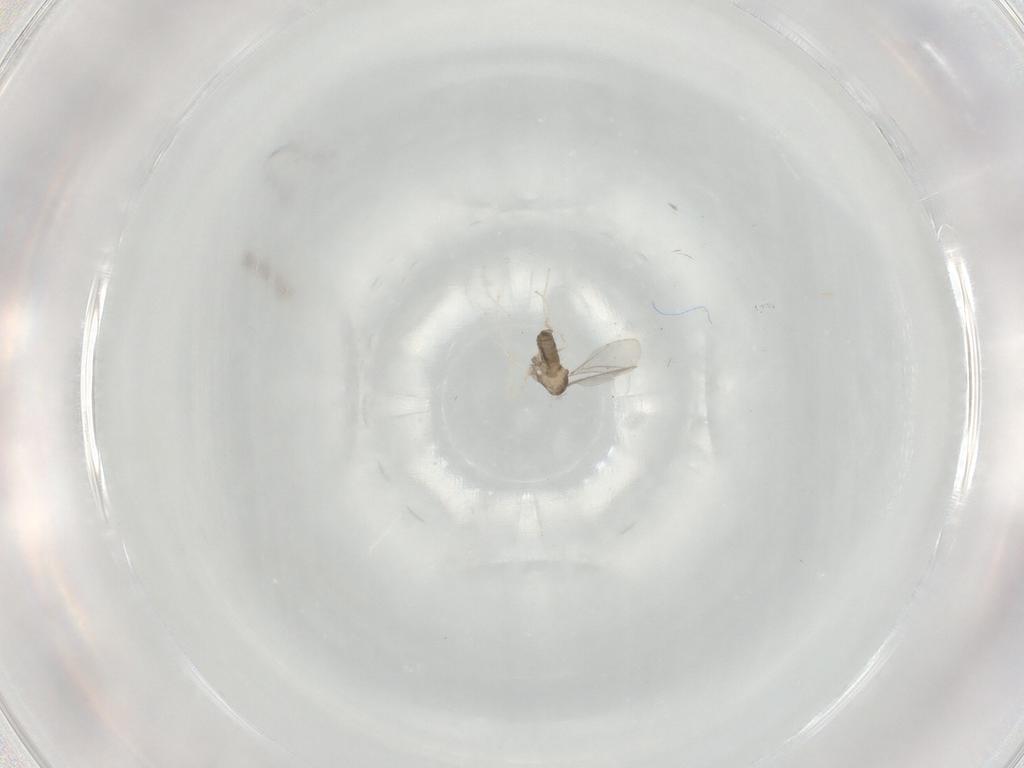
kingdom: Animalia
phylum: Arthropoda
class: Insecta
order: Diptera
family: Cecidomyiidae
